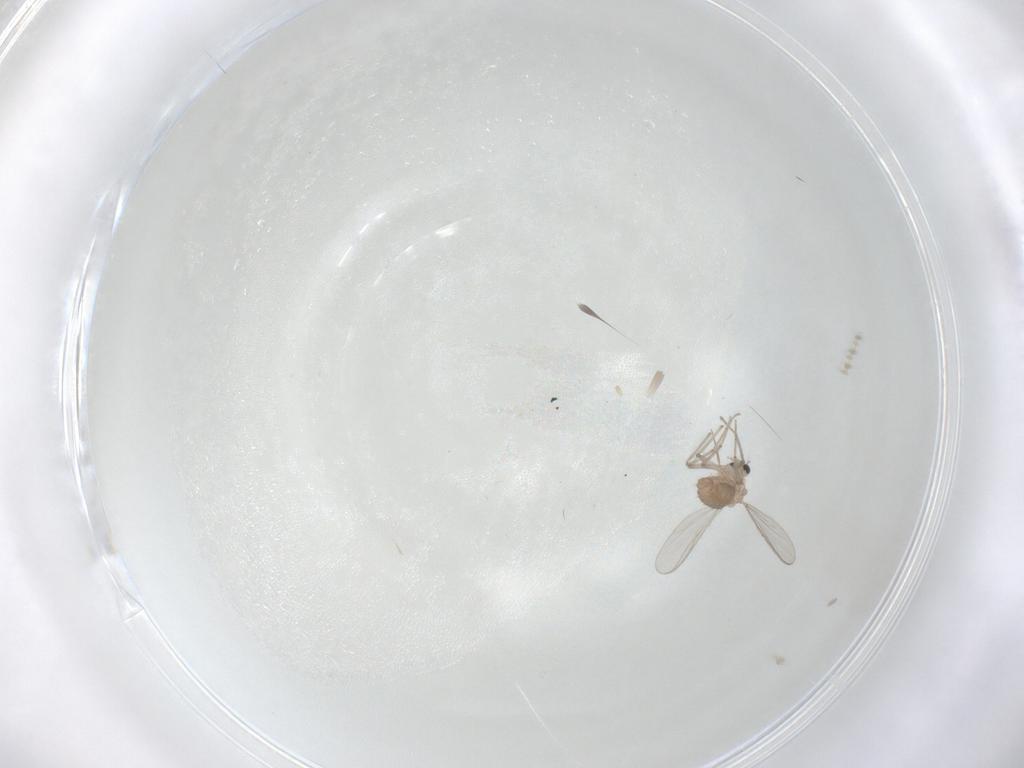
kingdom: Animalia
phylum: Arthropoda
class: Insecta
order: Diptera
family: Chironomidae
